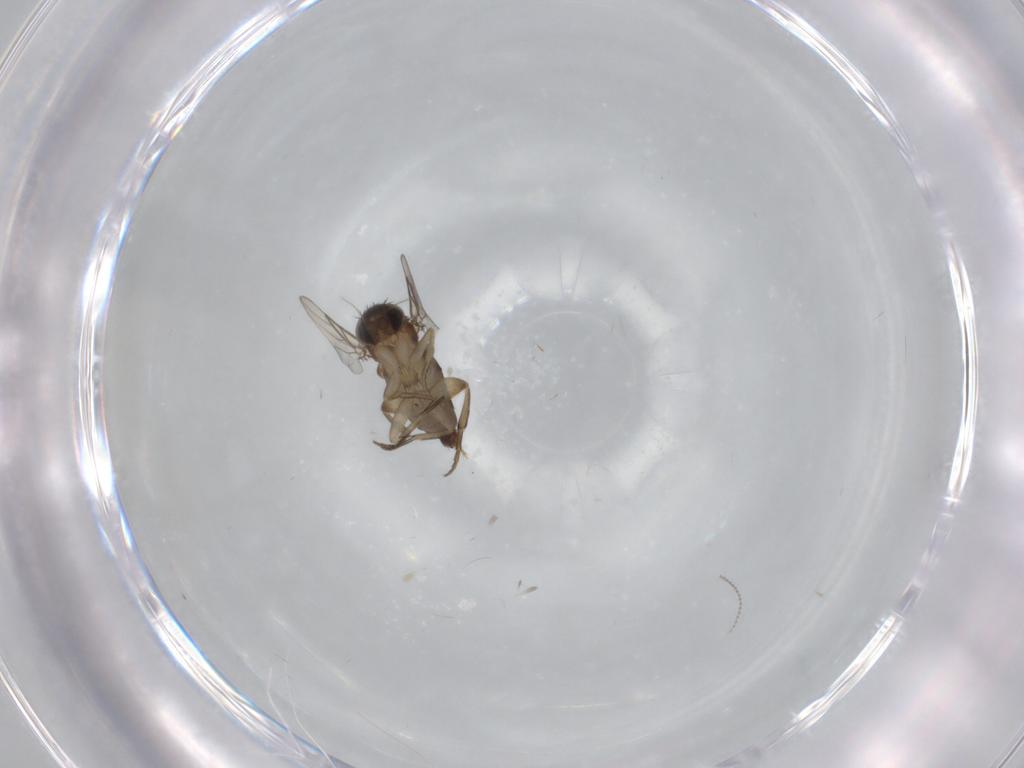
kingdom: Animalia
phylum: Arthropoda
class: Insecta
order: Diptera
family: Phoridae
